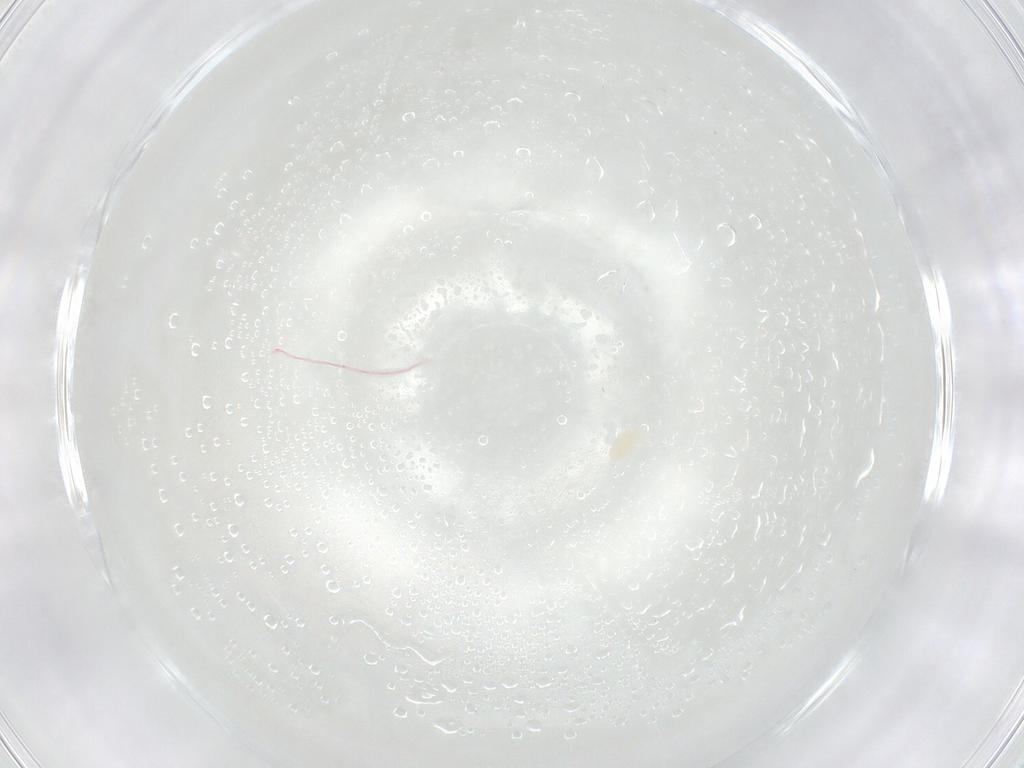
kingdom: Animalia
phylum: Arthropoda
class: Arachnida
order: Trombidiformes
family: Eupodidae
